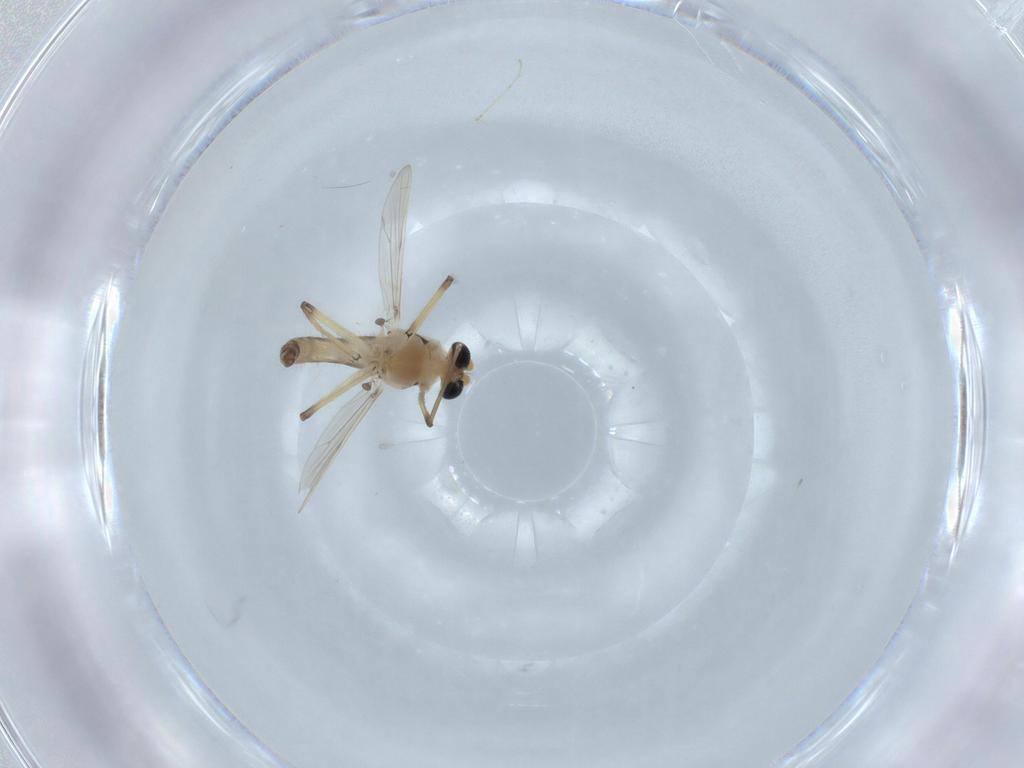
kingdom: Animalia
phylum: Arthropoda
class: Insecta
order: Diptera
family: Chironomidae
